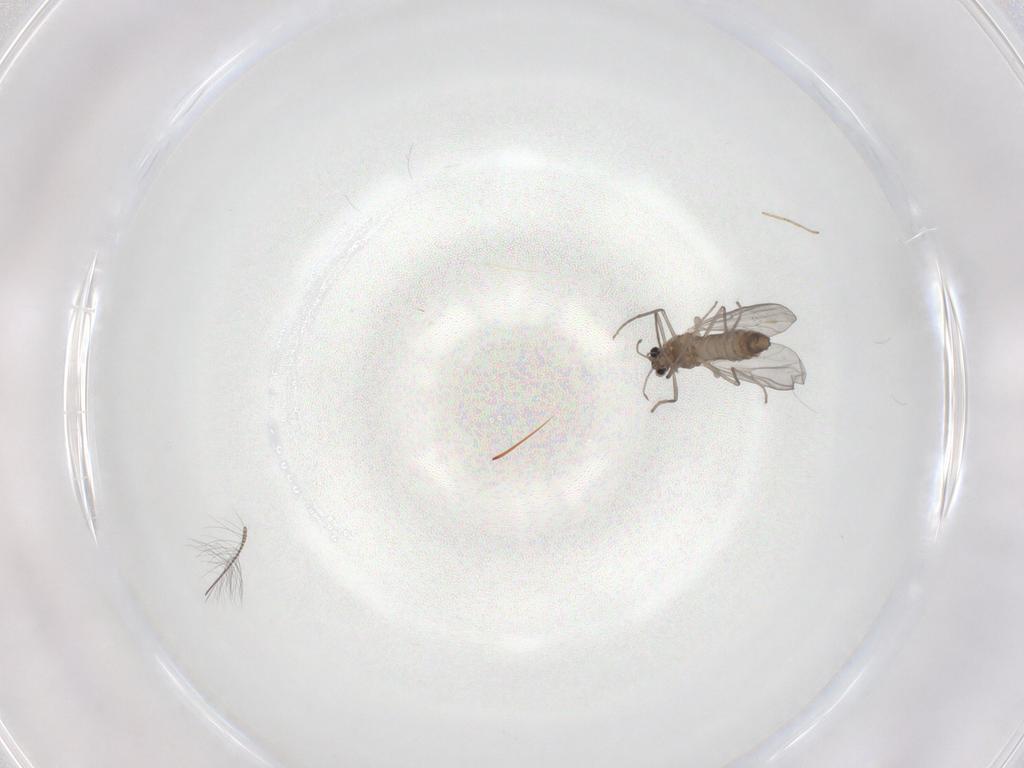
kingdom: Animalia
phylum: Arthropoda
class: Insecta
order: Diptera
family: Chironomidae
